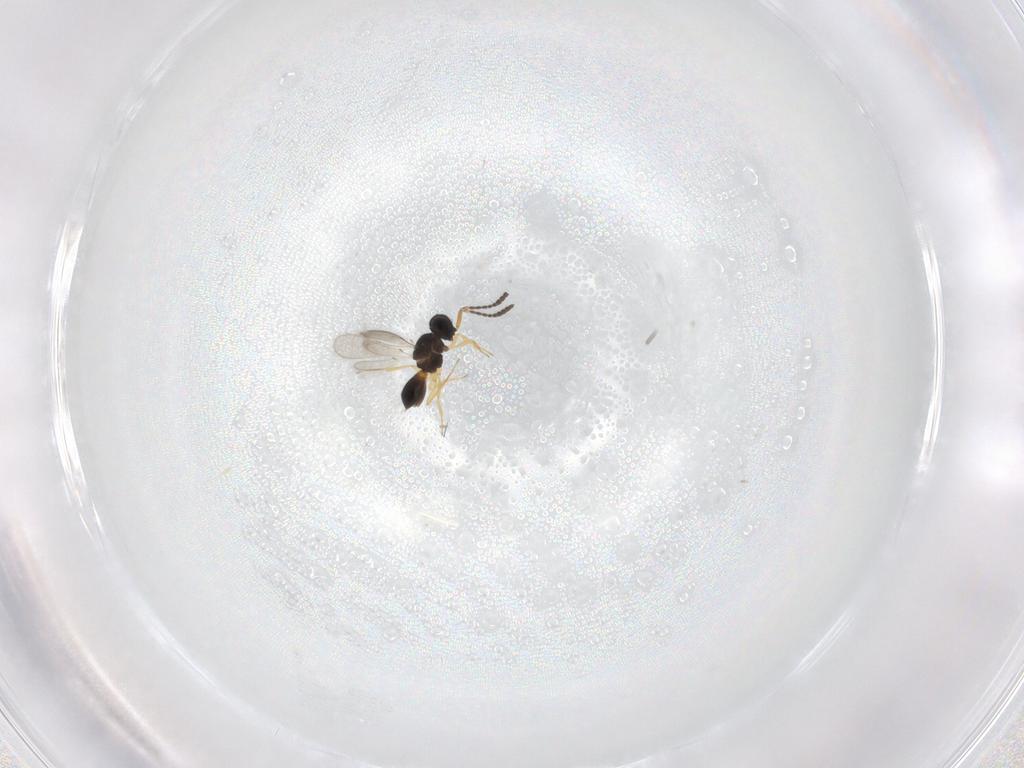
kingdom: Animalia
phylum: Arthropoda
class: Insecta
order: Hymenoptera
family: Scelionidae
